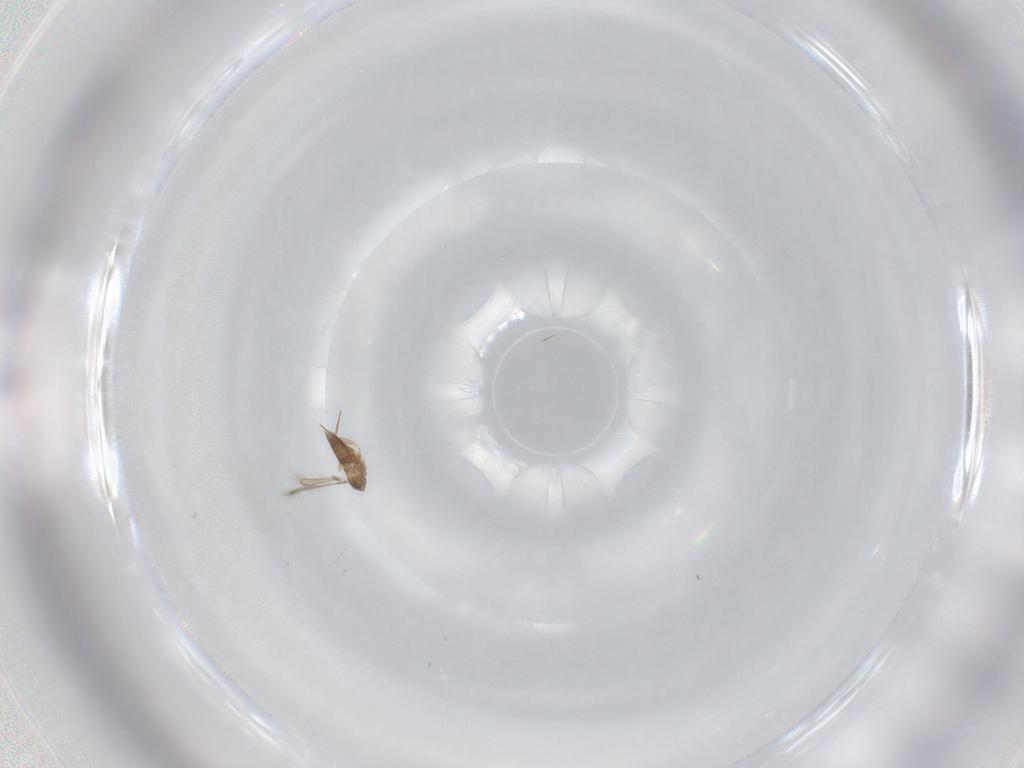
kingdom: Animalia
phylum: Arthropoda
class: Insecta
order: Hymenoptera
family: Mymaridae
